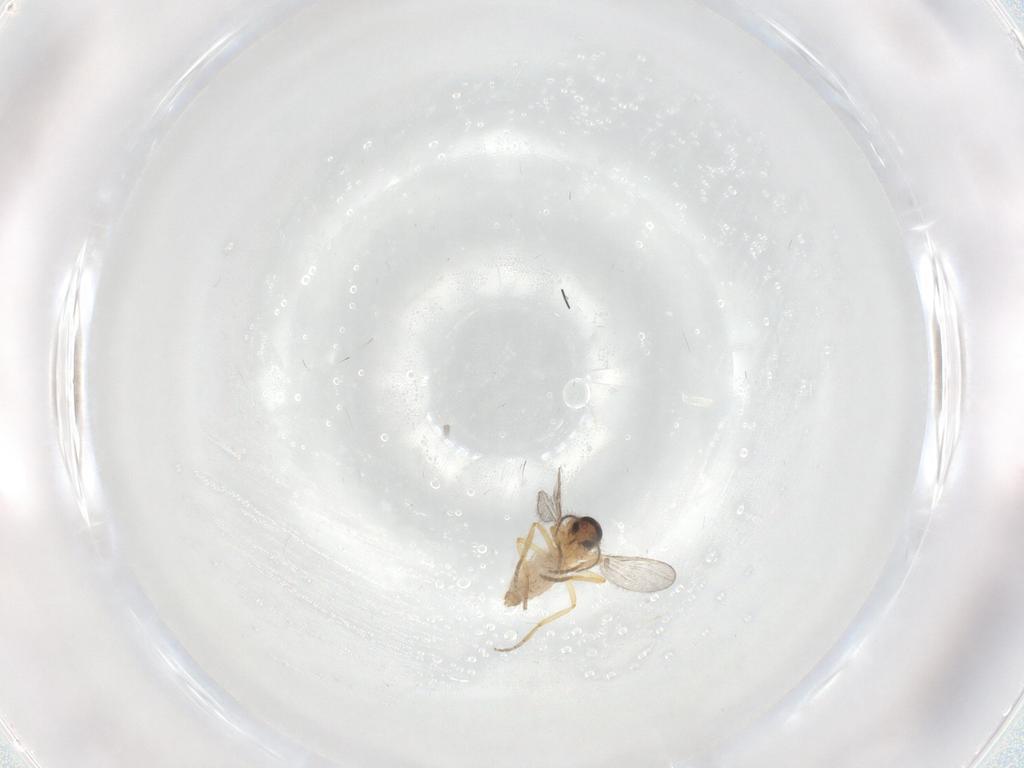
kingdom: Animalia
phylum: Arthropoda
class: Insecta
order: Diptera
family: Ceratopogonidae
